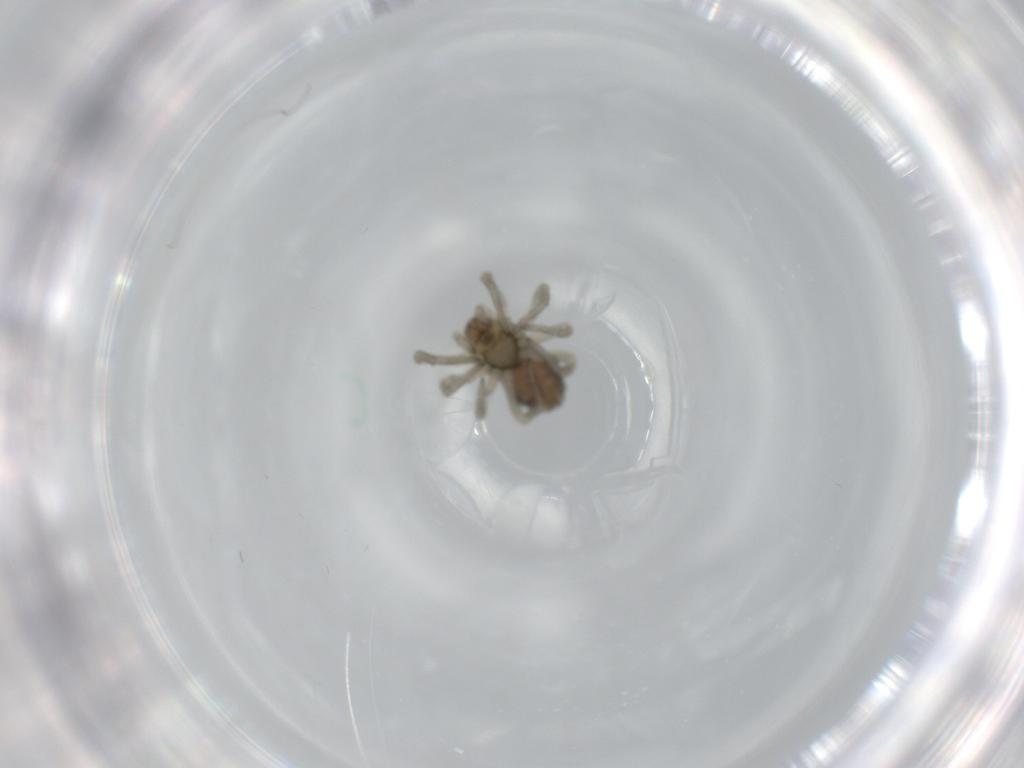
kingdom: Animalia
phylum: Arthropoda
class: Arachnida
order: Araneae
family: Dictynidae
